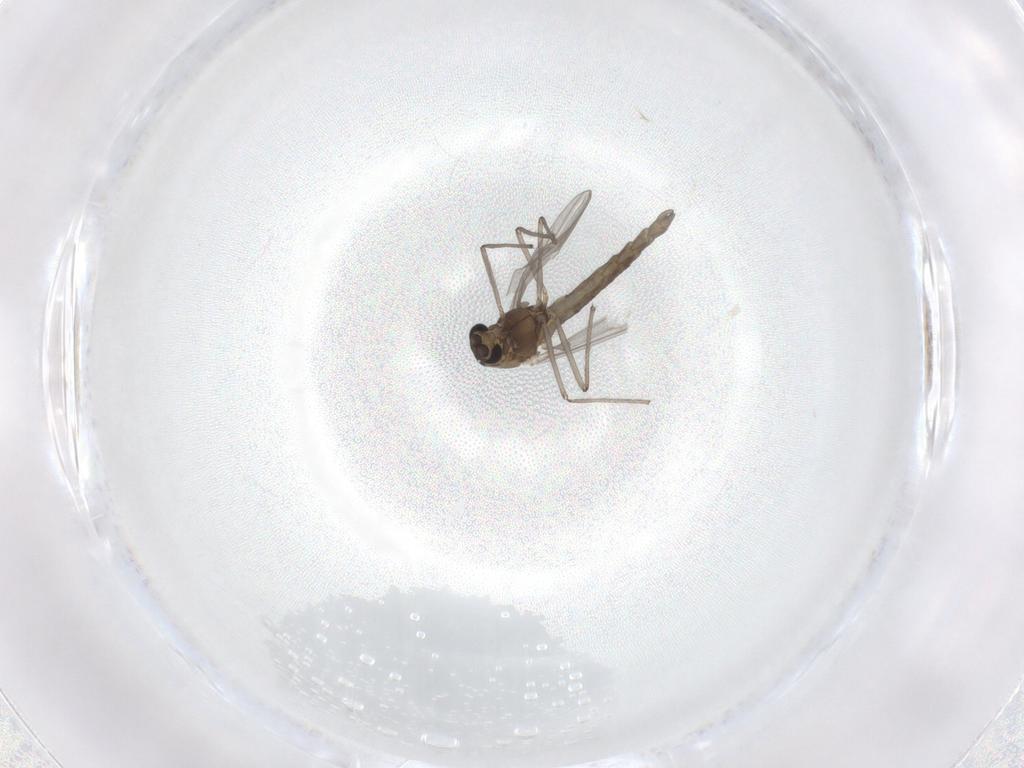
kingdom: Animalia
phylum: Arthropoda
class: Insecta
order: Diptera
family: Chironomidae
